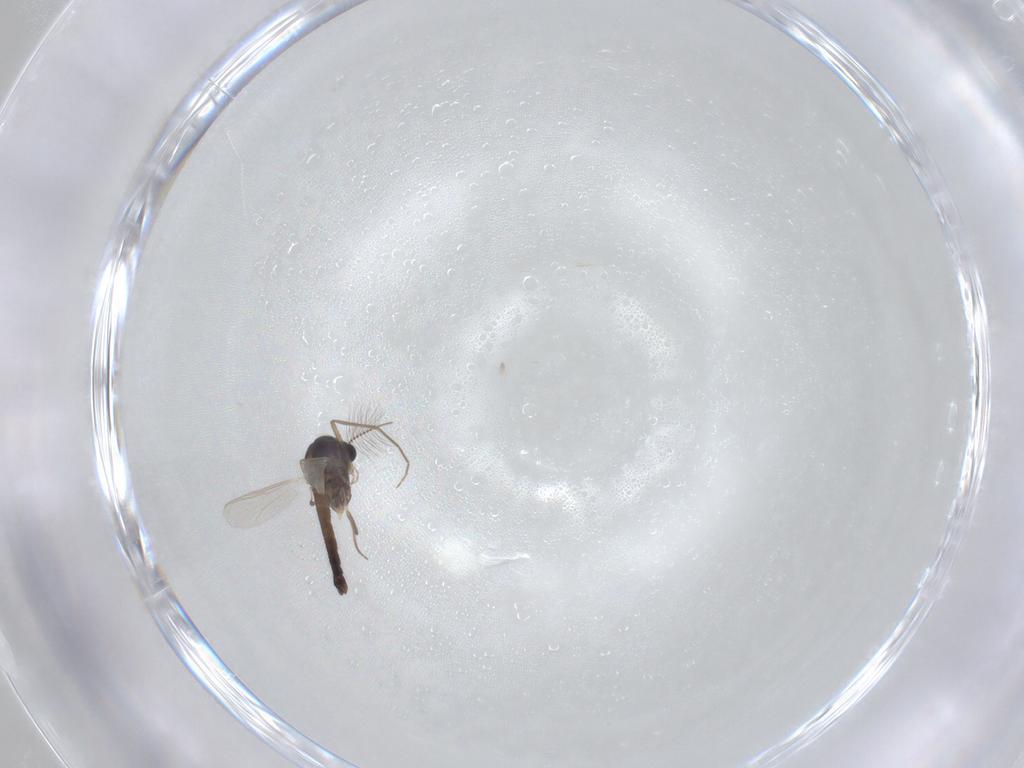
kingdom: Animalia
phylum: Arthropoda
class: Insecta
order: Diptera
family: Chironomidae
